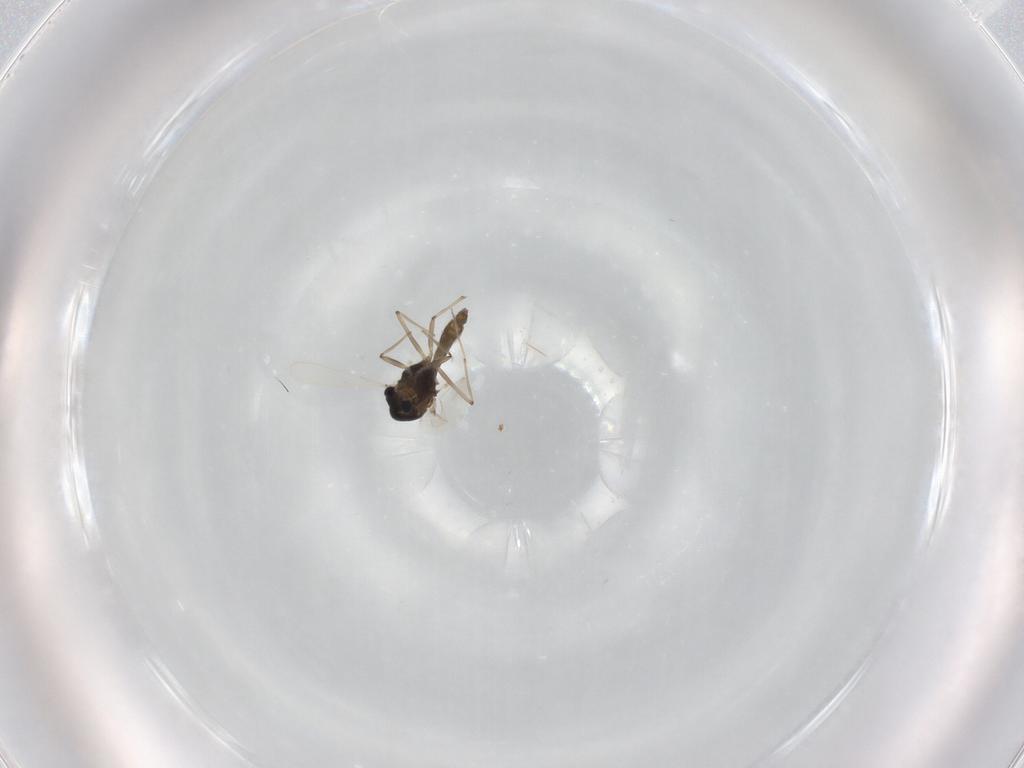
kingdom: Animalia
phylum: Arthropoda
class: Insecta
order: Diptera
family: Chironomidae
